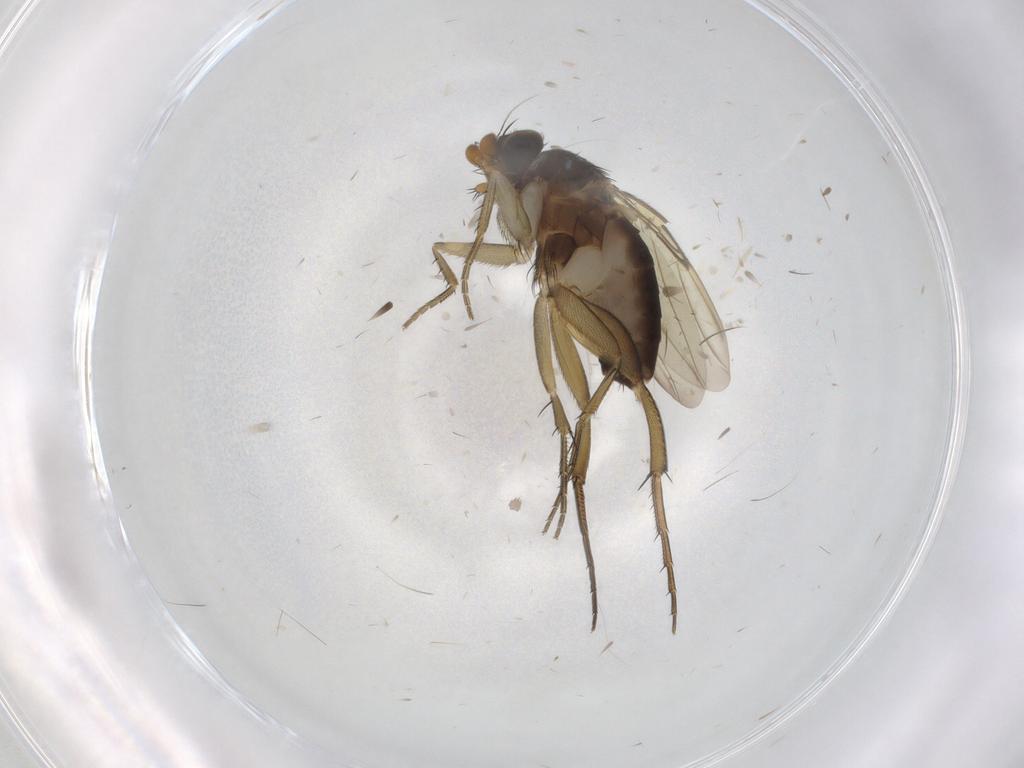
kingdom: Animalia
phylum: Arthropoda
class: Insecta
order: Diptera
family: Phoridae
